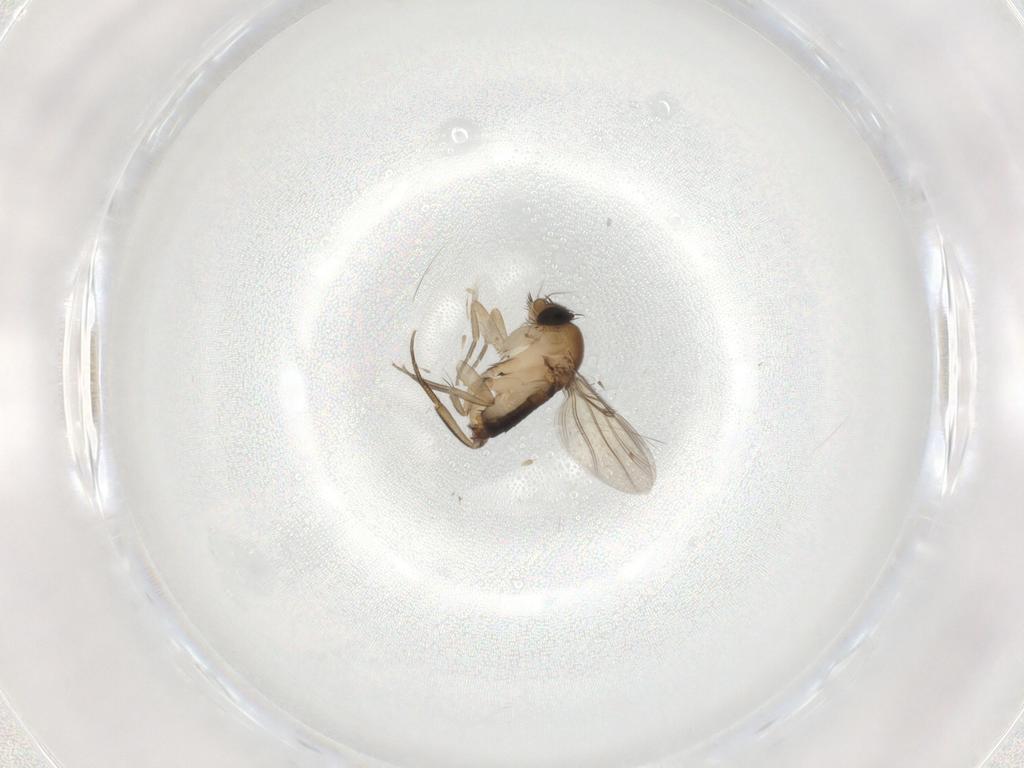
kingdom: Animalia
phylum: Arthropoda
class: Insecta
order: Diptera
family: Phoridae
